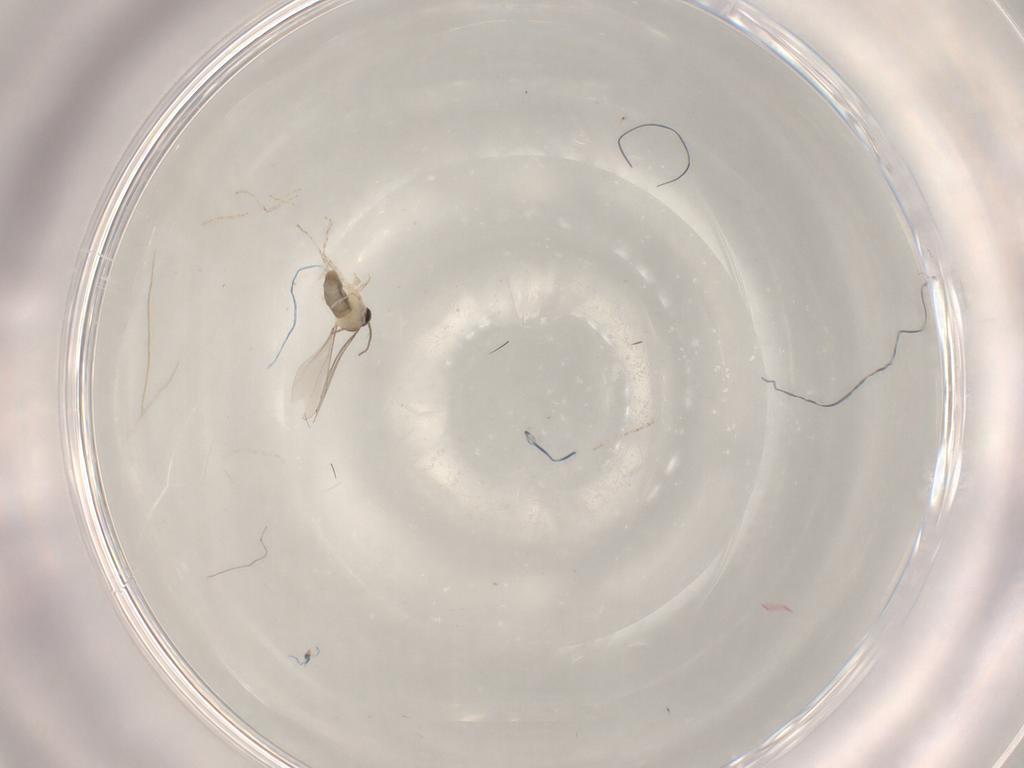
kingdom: Animalia
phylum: Arthropoda
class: Insecta
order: Diptera
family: Cecidomyiidae
